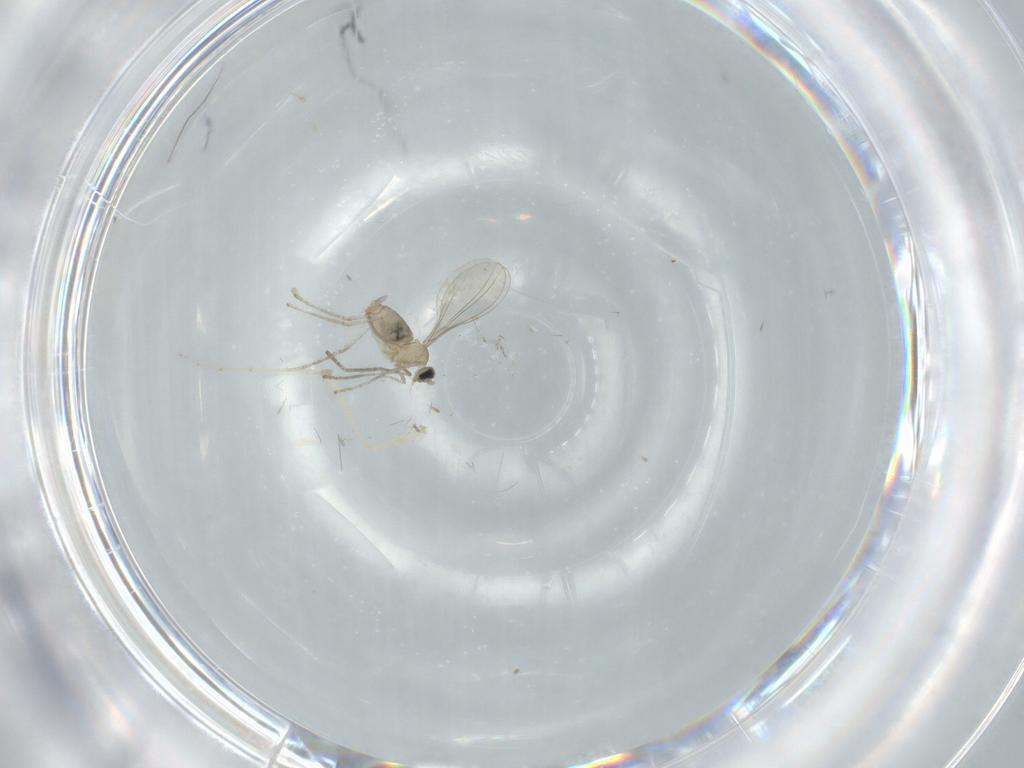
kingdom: Animalia
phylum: Arthropoda
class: Insecta
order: Diptera
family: Cecidomyiidae
